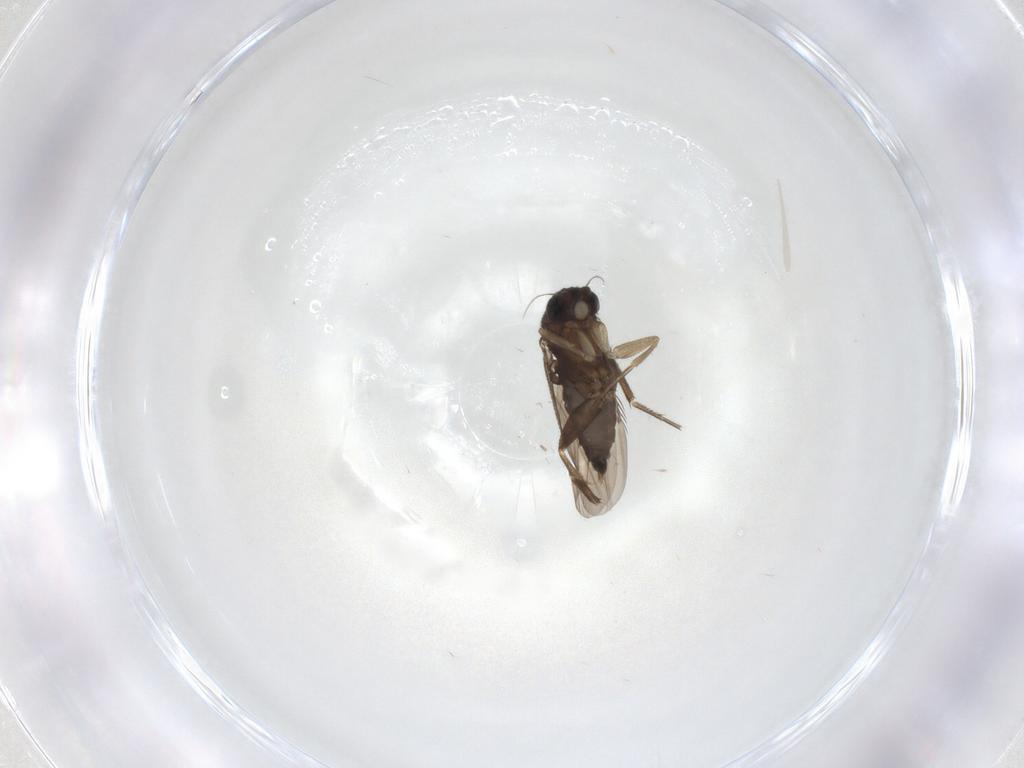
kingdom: Animalia
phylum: Arthropoda
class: Insecta
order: Diptera
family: Phoridae
